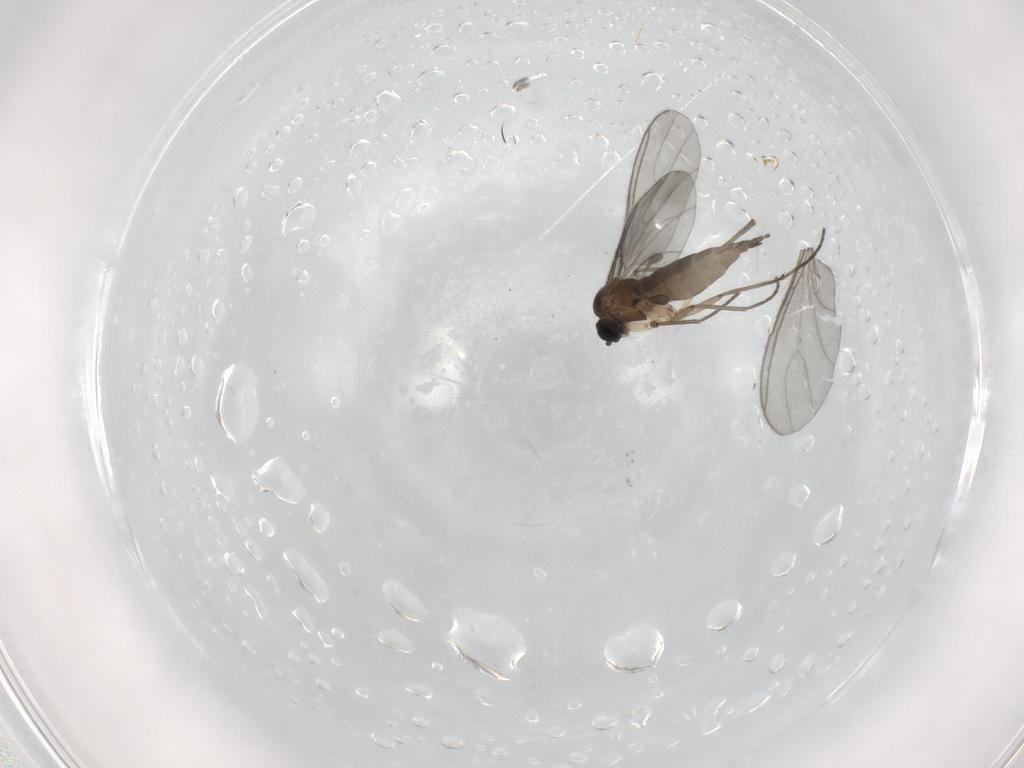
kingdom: Animalia
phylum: Arthropoda
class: Insecta
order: Diptera
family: Sciaridae
